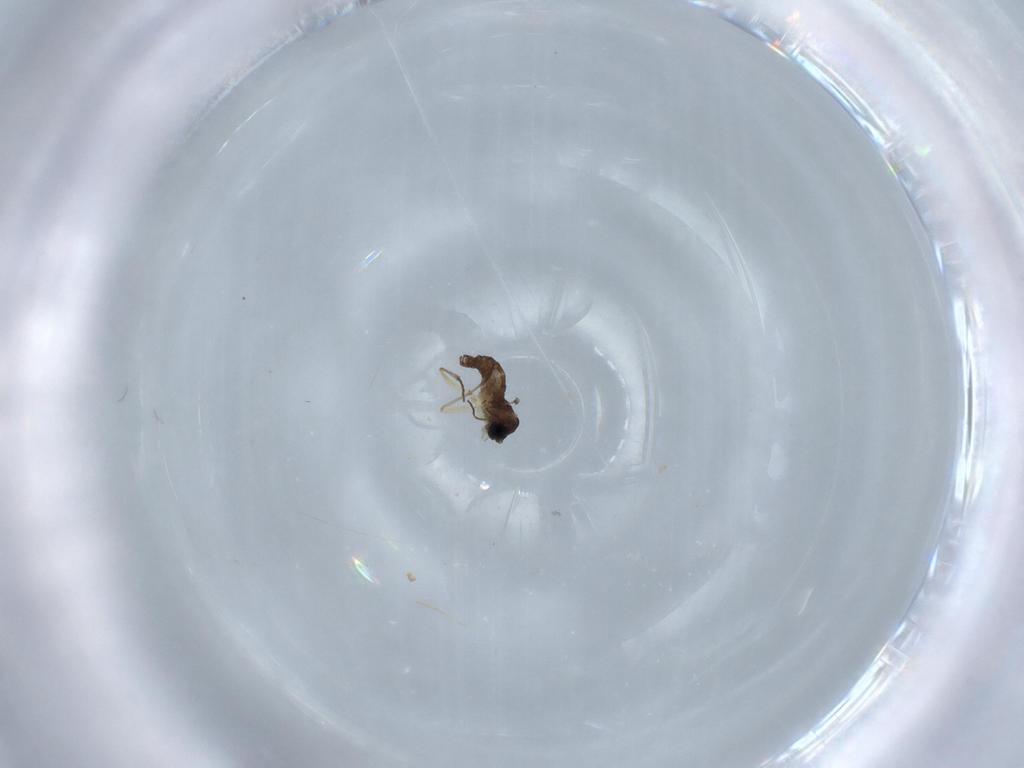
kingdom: Animalia
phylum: Arthropoda
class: Insecta
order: Diptera
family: Sciaridae
